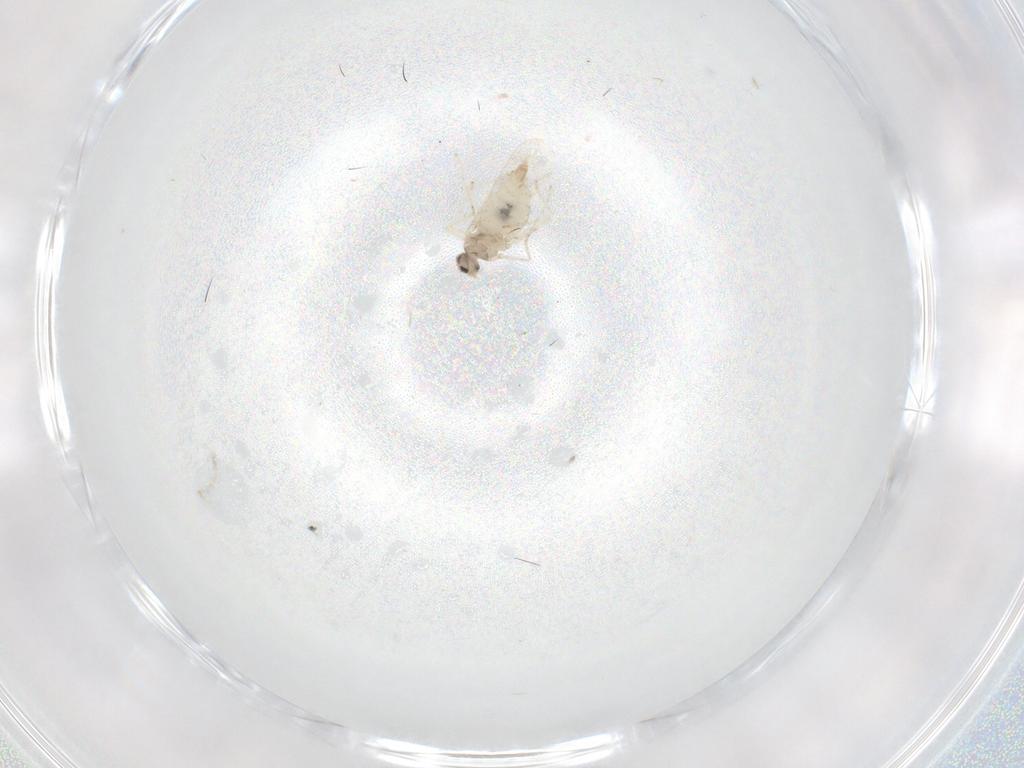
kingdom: Animalia
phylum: Arthropoda
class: Insecta
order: Diptera
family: Cecidomyiidae
